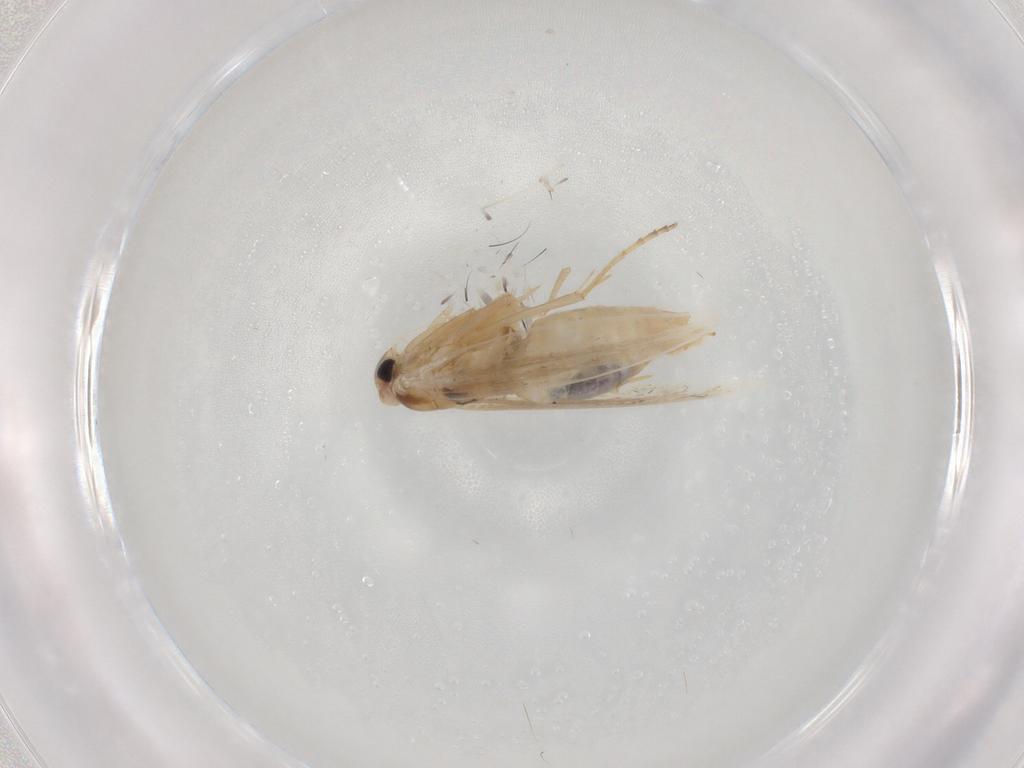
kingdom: Animalia
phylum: Arthropoda
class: Insecta
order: Lepidoptera
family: Bucculatricidae
